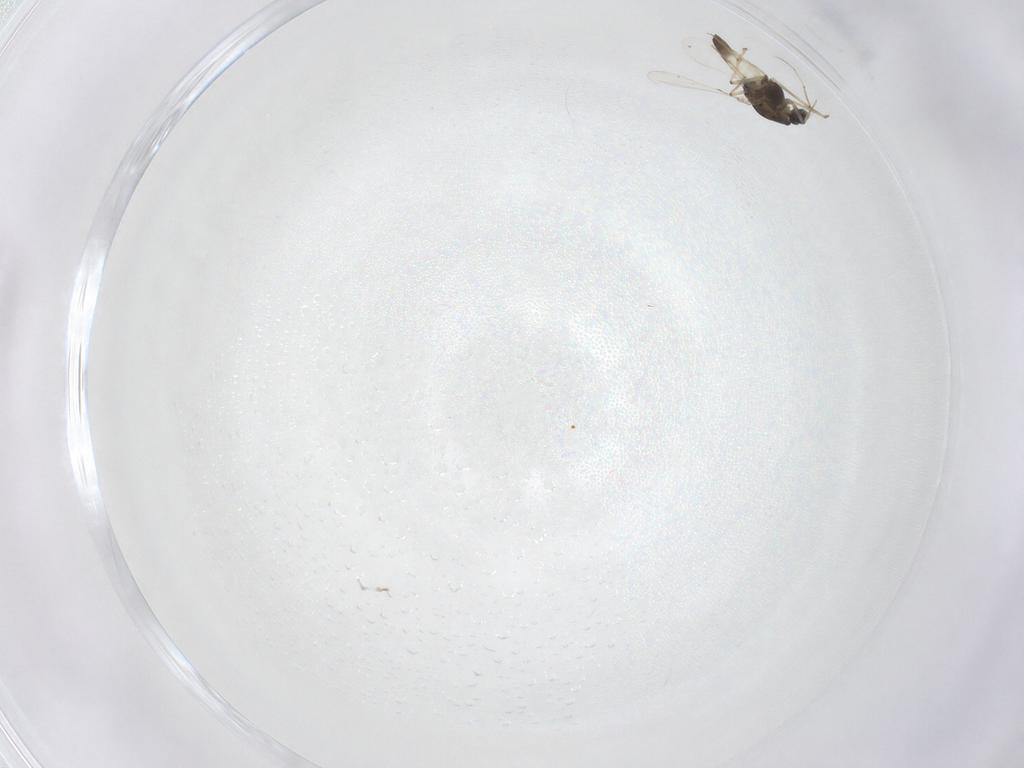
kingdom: Animalia
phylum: Arthropoda
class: Insecta
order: Diptera
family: Chironomidae
